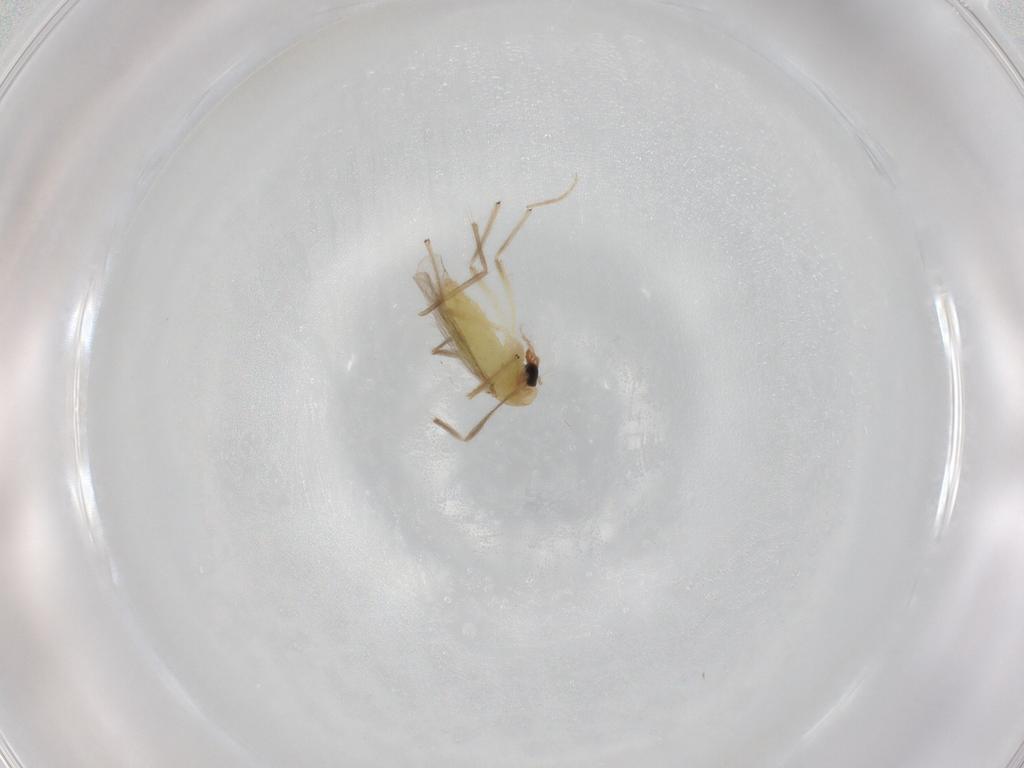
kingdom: Animalia
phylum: Arthropoda
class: Insecta
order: Diptera
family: Chironomidae
